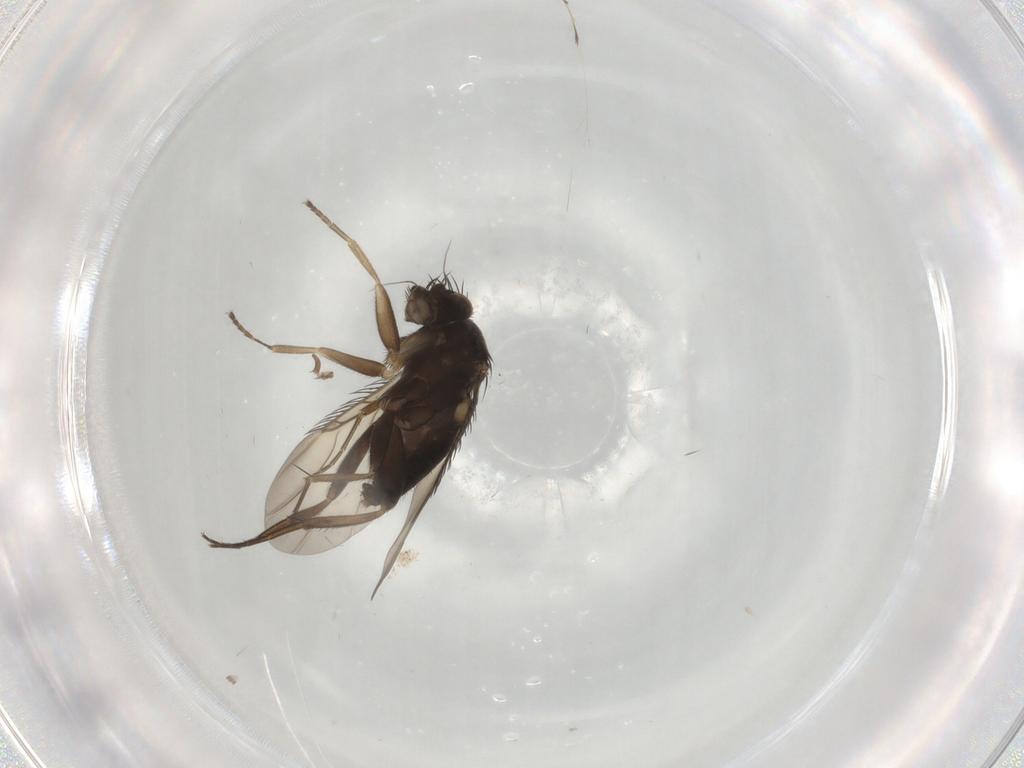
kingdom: Animalia
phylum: Arthropoda
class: Insecta
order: Diptera
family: Phoridae
